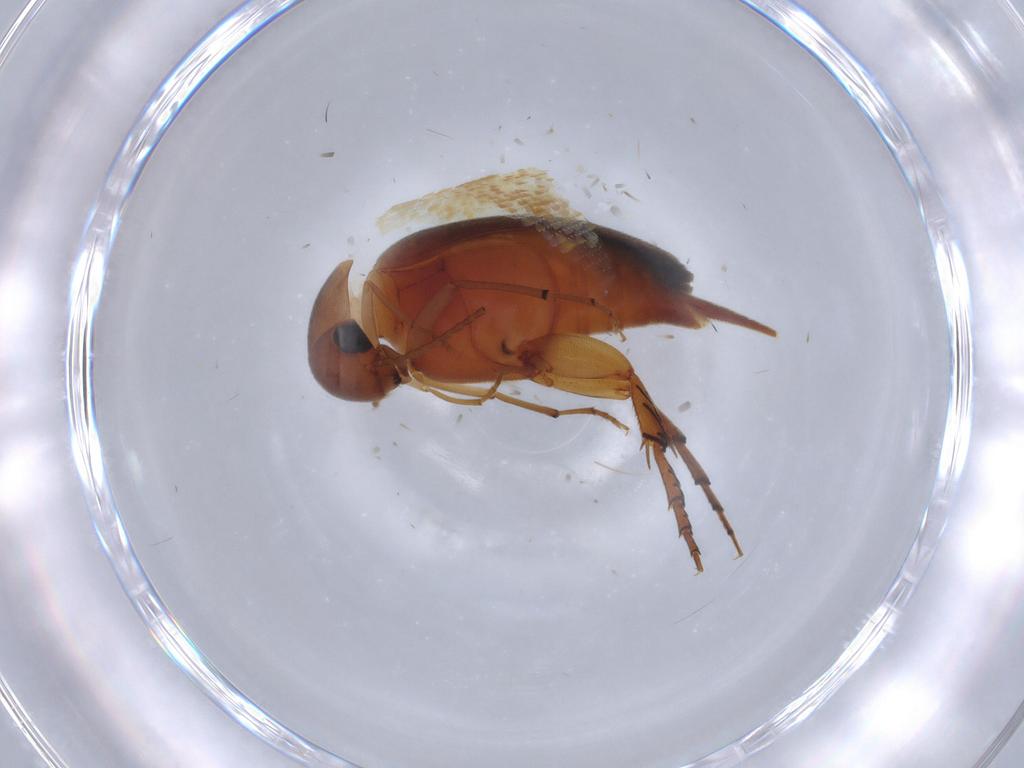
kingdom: Animalia
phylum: Arthropoda
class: Insecta
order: Coleoptera
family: Mordellidae
